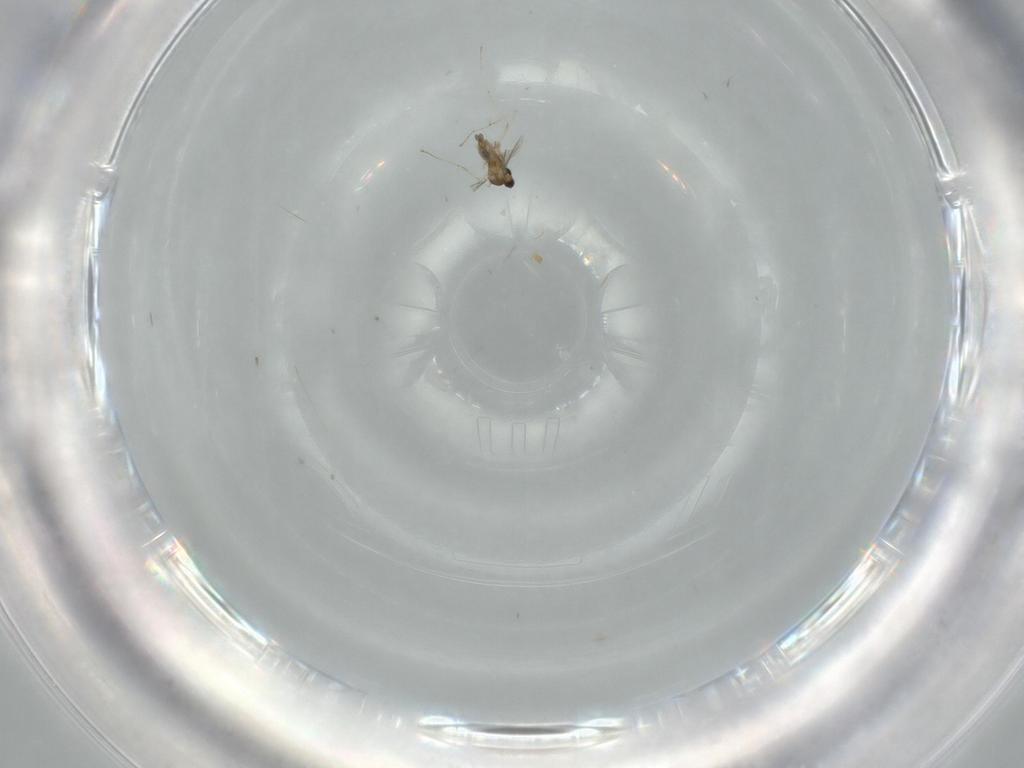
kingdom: Animalia
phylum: Arthropoda
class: Insecta
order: Diptera
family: Cecidomyiidae
